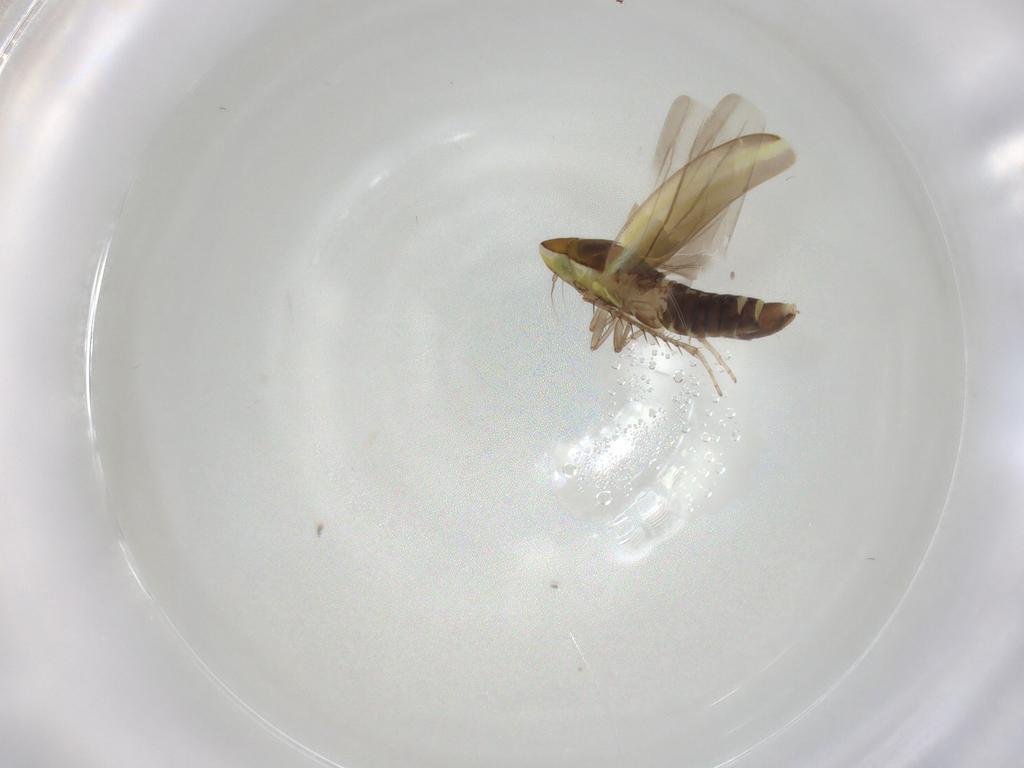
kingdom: Animalia
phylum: Arthropoda
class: Insecta
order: Hemiptera
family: Cicadellidae
